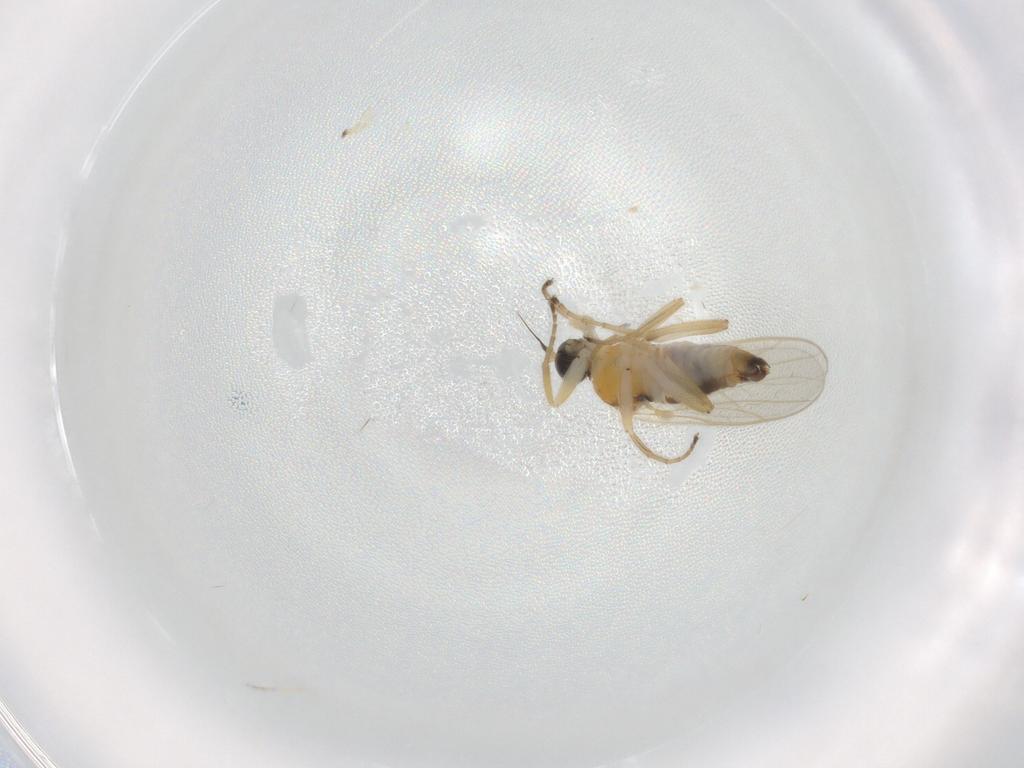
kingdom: Animalia
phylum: Arthropoda
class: Insecta
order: Diptera
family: Hybotidae
